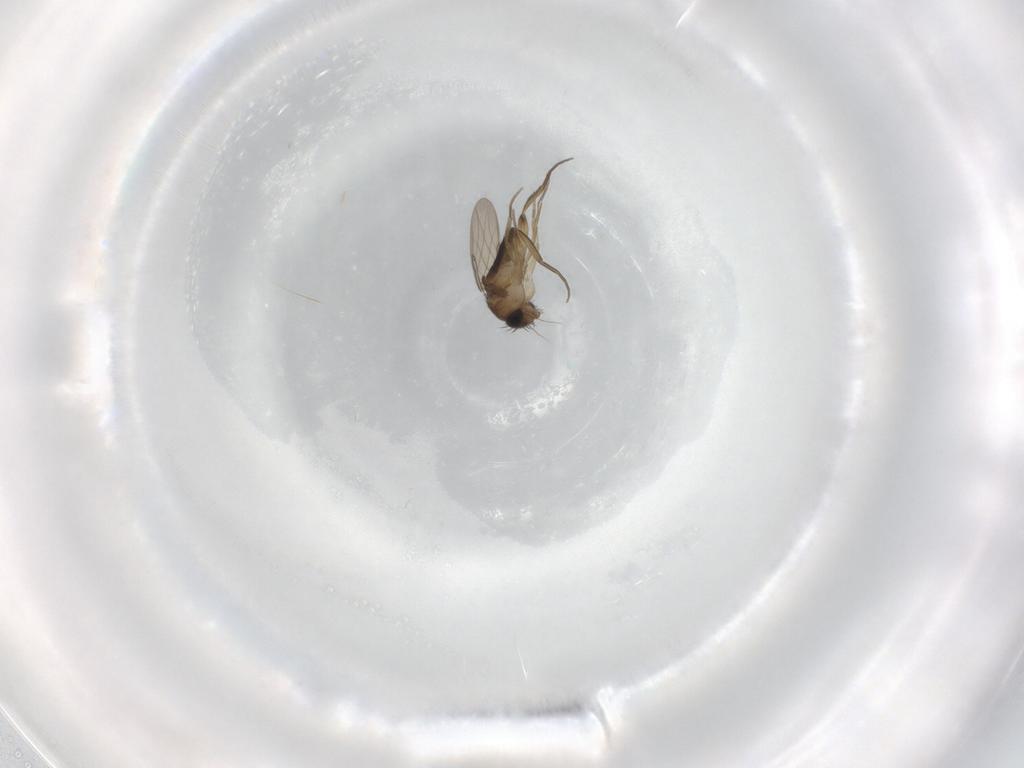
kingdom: Animalia
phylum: Arthropoda
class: Insecta
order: Diptera
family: Phoridae
